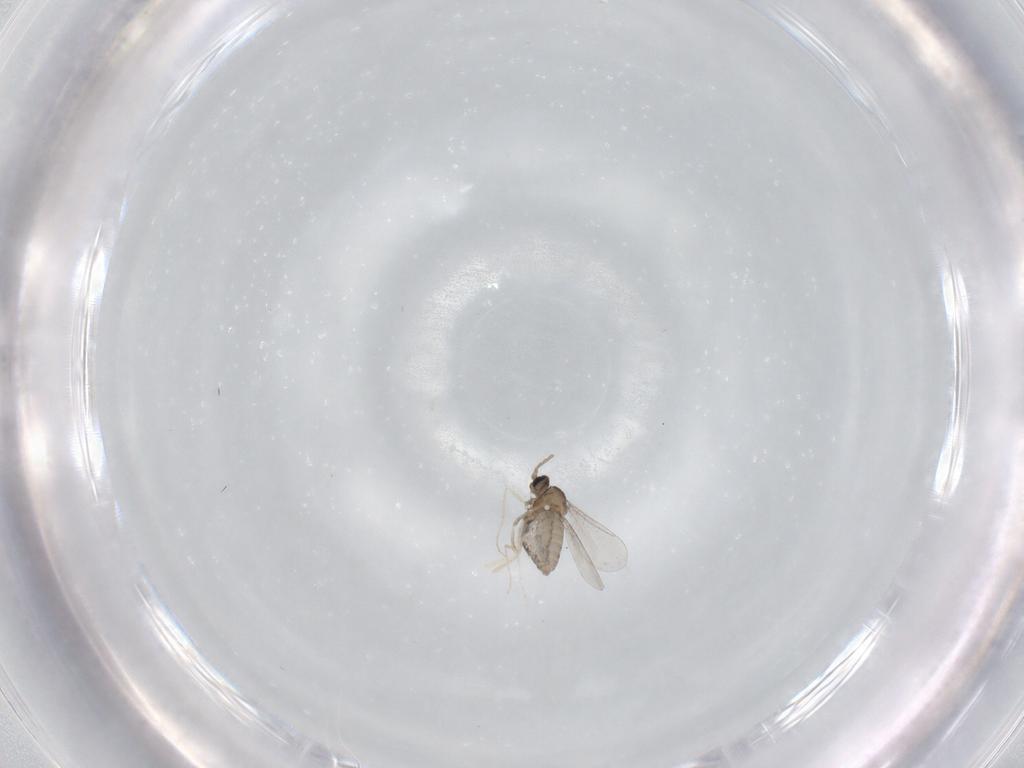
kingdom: Animalia
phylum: Arthropoda
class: Insecta
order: Diptera
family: Cecidomyiidae
